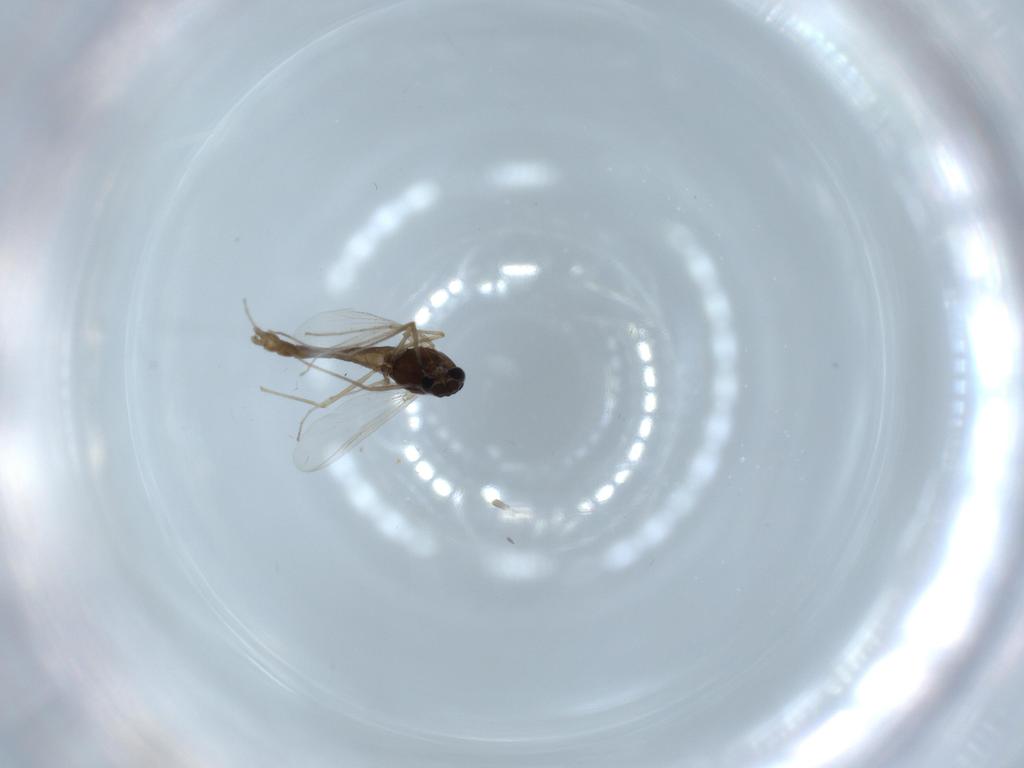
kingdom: Animalia
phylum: Arthropoda
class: Insecta
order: Diptera
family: Chironomidae
